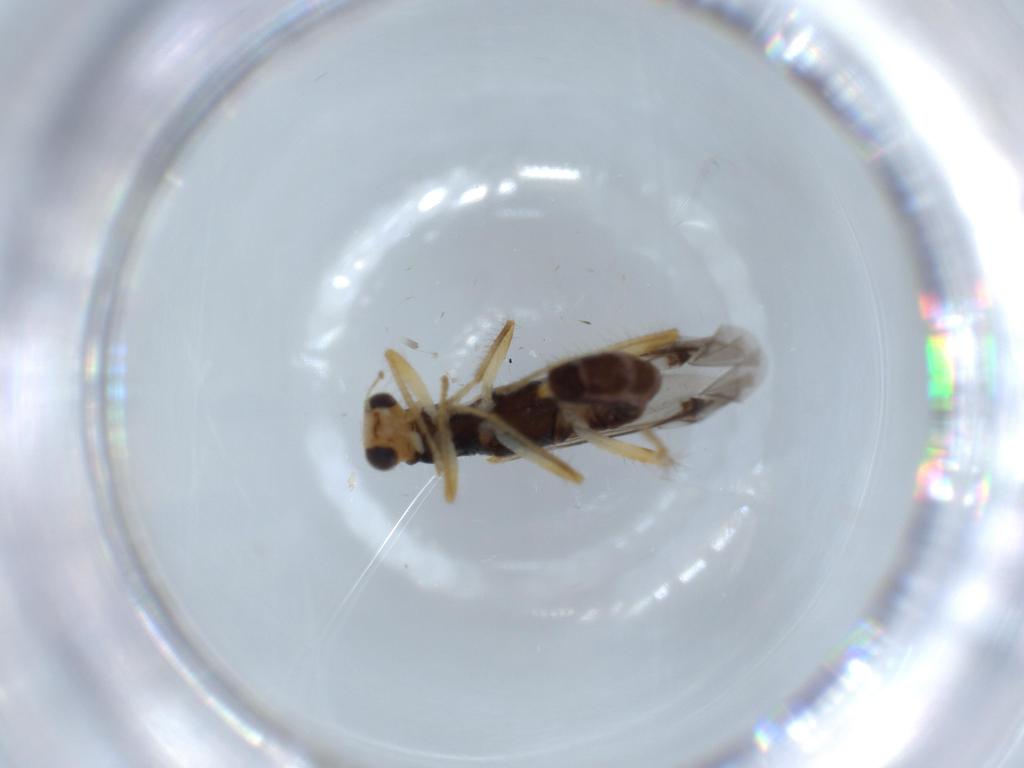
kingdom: Animalia
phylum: Arthropoda
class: Insecta
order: Coleoptera
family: Cleridae
